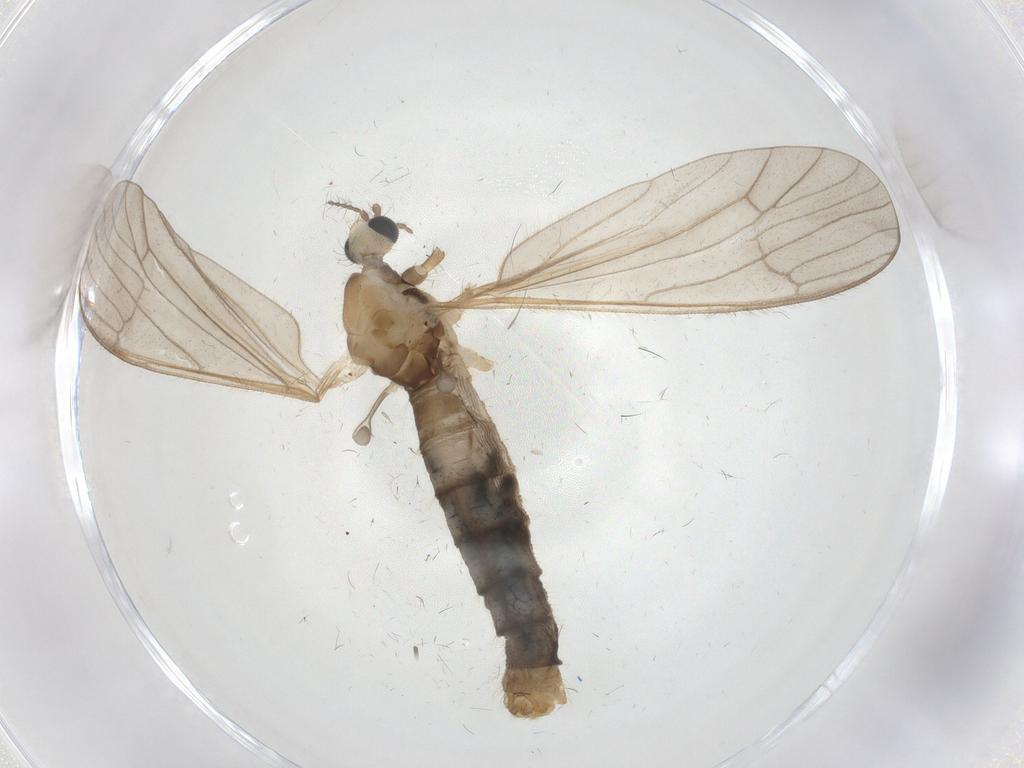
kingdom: Animalia
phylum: Arthropoda
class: Insecta
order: Diptera
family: Limoniidae
